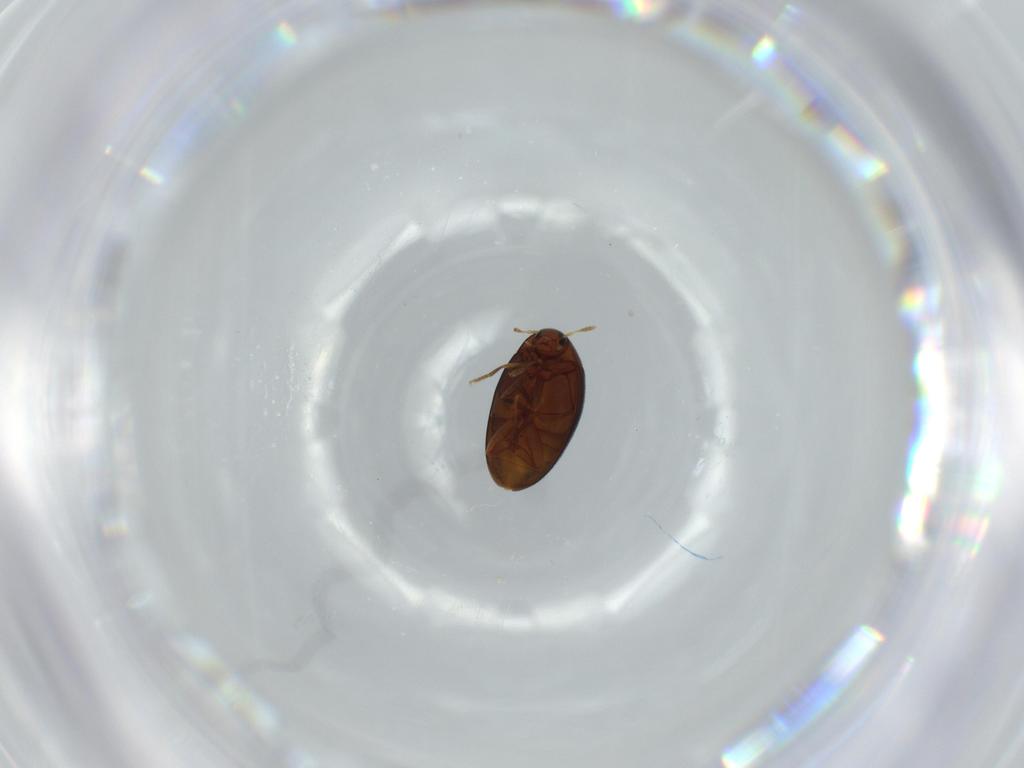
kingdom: Animalia
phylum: Arthropoda
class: Insecta
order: Coleoptera
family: Melandryidae
